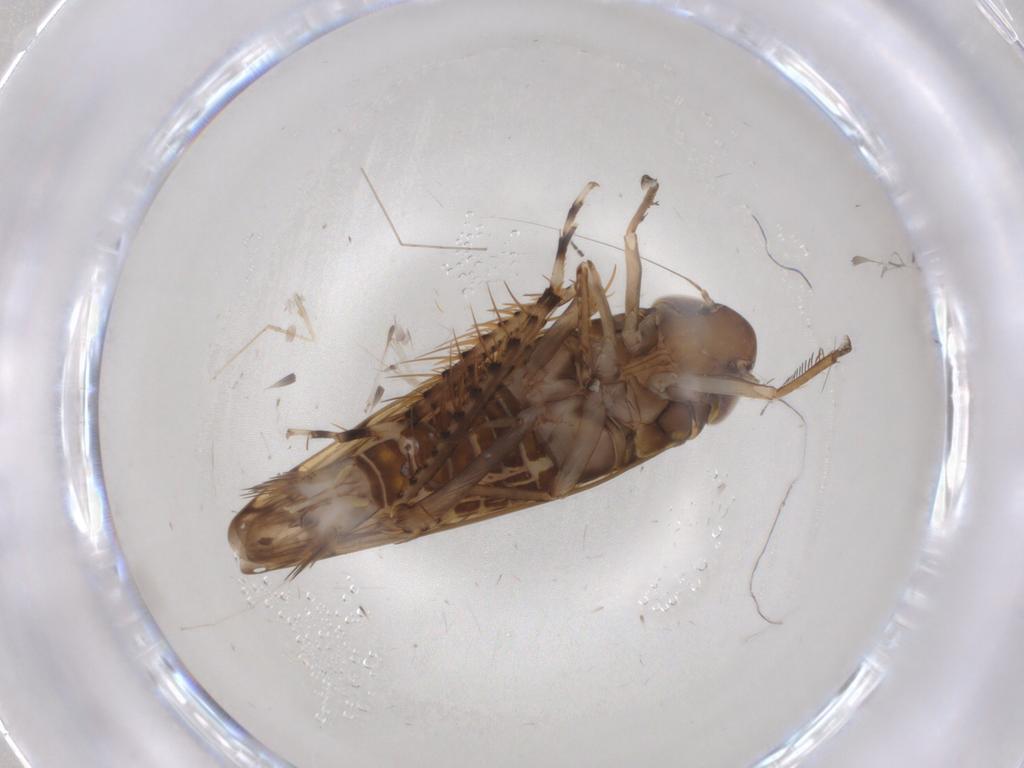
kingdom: Animalia
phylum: Arthropoda
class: Insecta
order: Hemiptera
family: Cicadellidae
